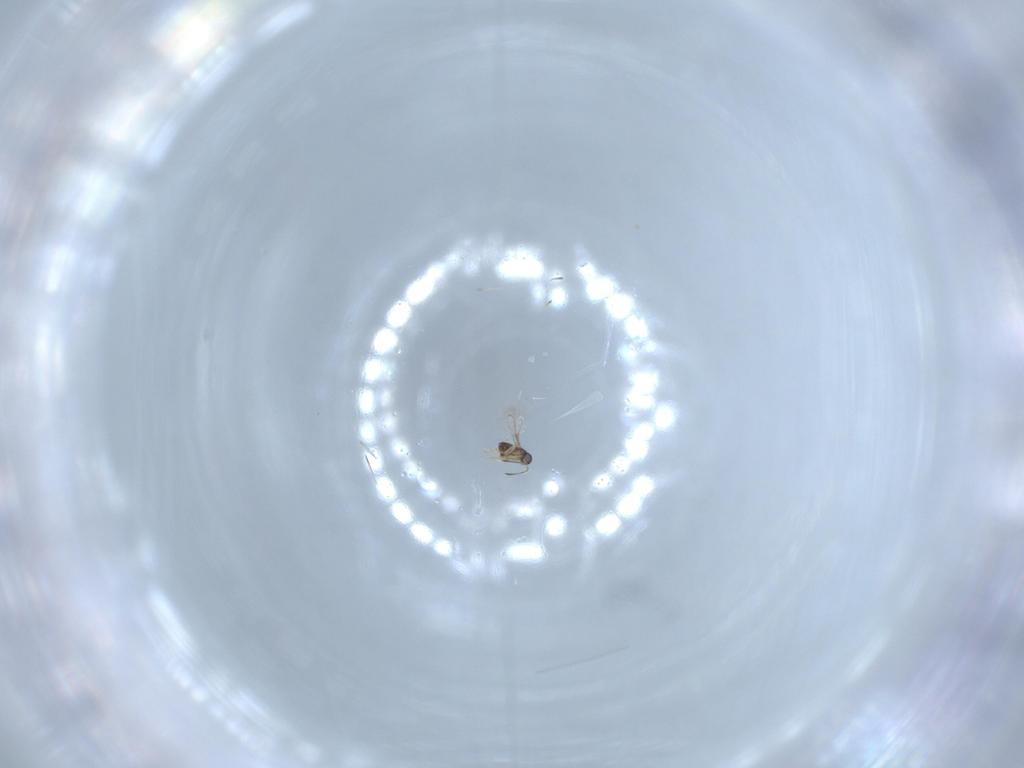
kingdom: Animalia
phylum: Arthropoda
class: Insecta
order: Hymenoptera
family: Mymaridae
